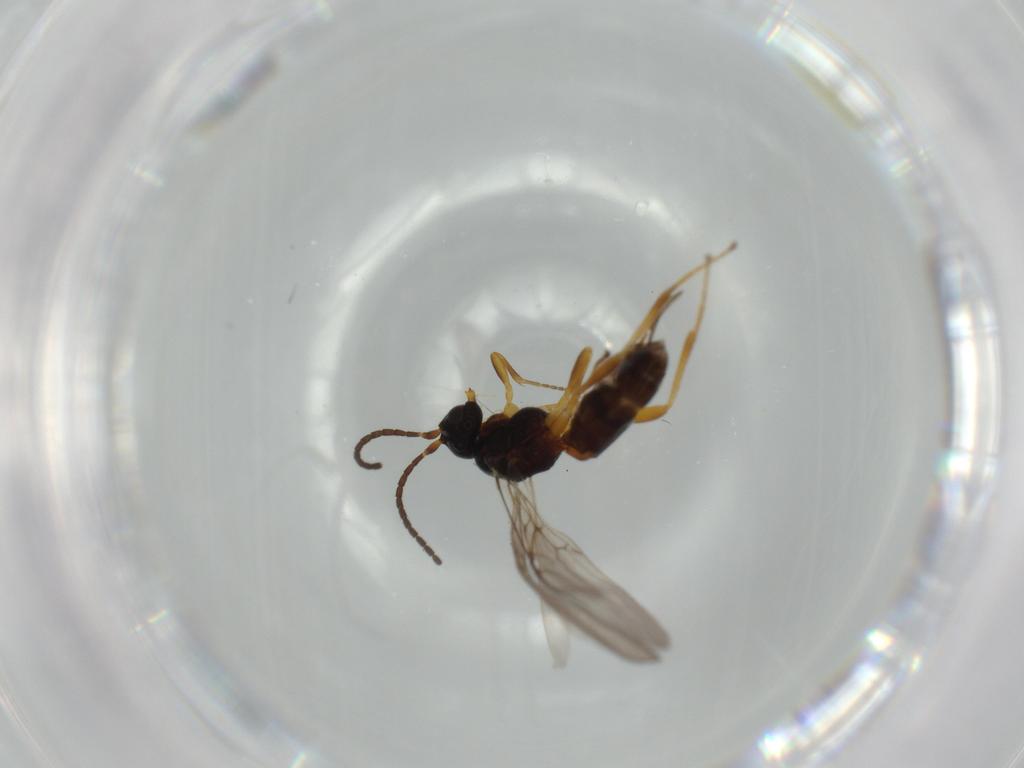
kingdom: Animalia
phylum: Arthropoda
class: Insecta
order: Hymenoptera
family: Braconidae
